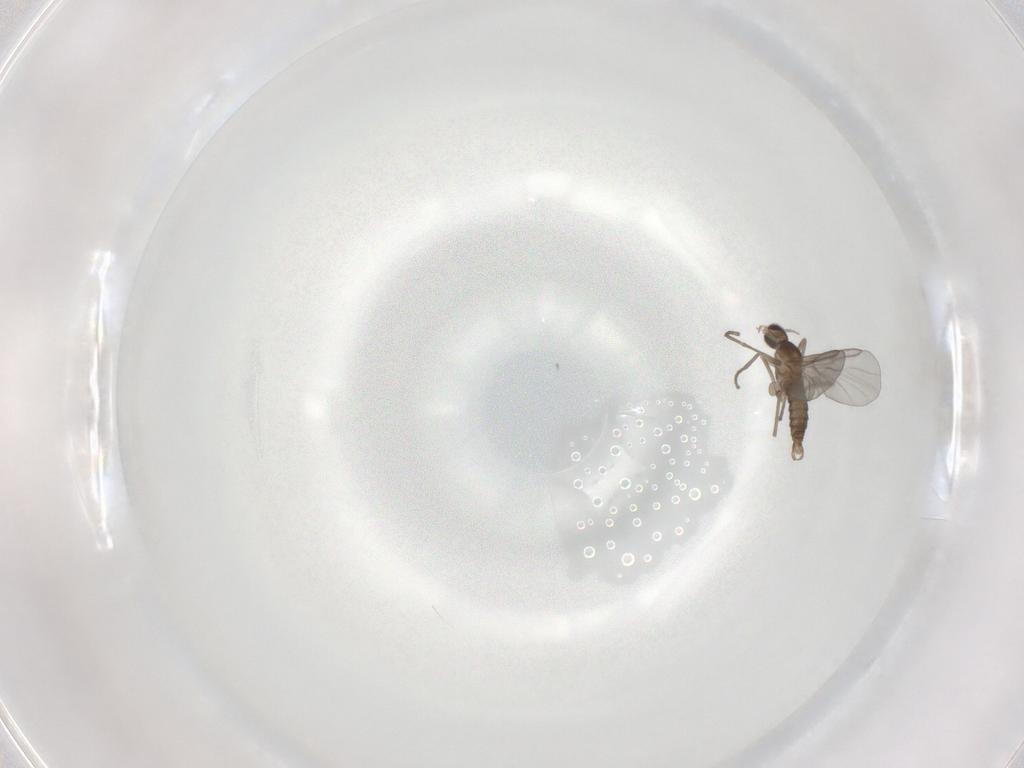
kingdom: Animalia
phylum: Arthropoda
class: Insecta
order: Diptera
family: Cecidomyiidae
